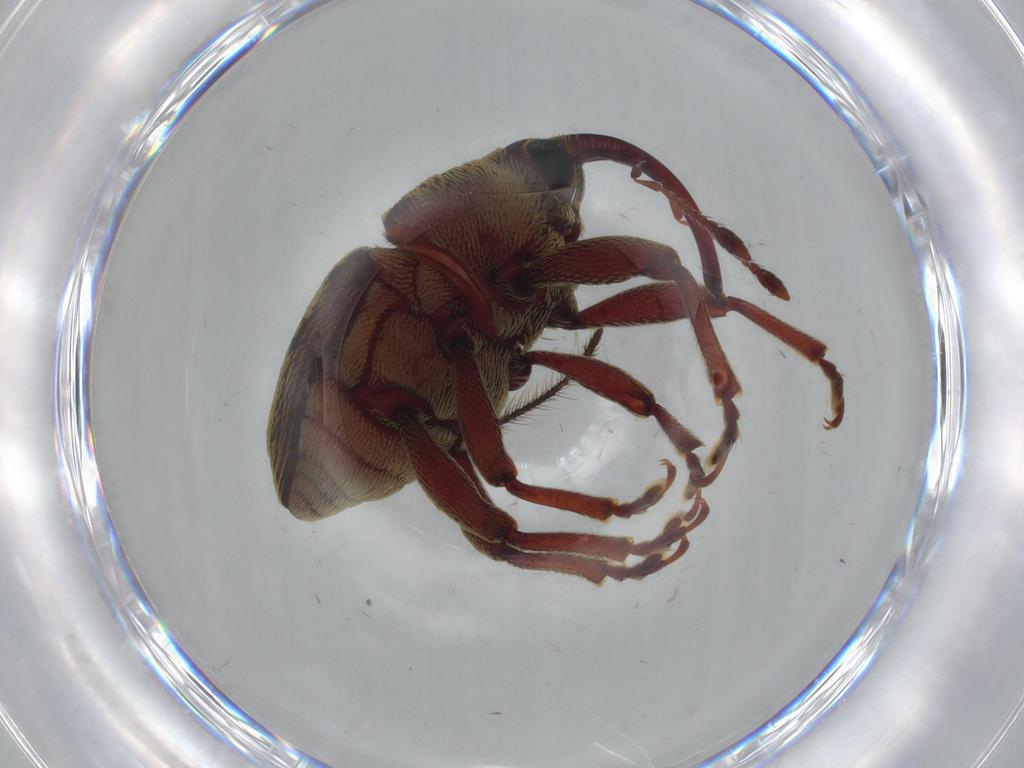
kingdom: Animalia
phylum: Arthropoda
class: Insecta
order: Coleoptera
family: Curculionidae
